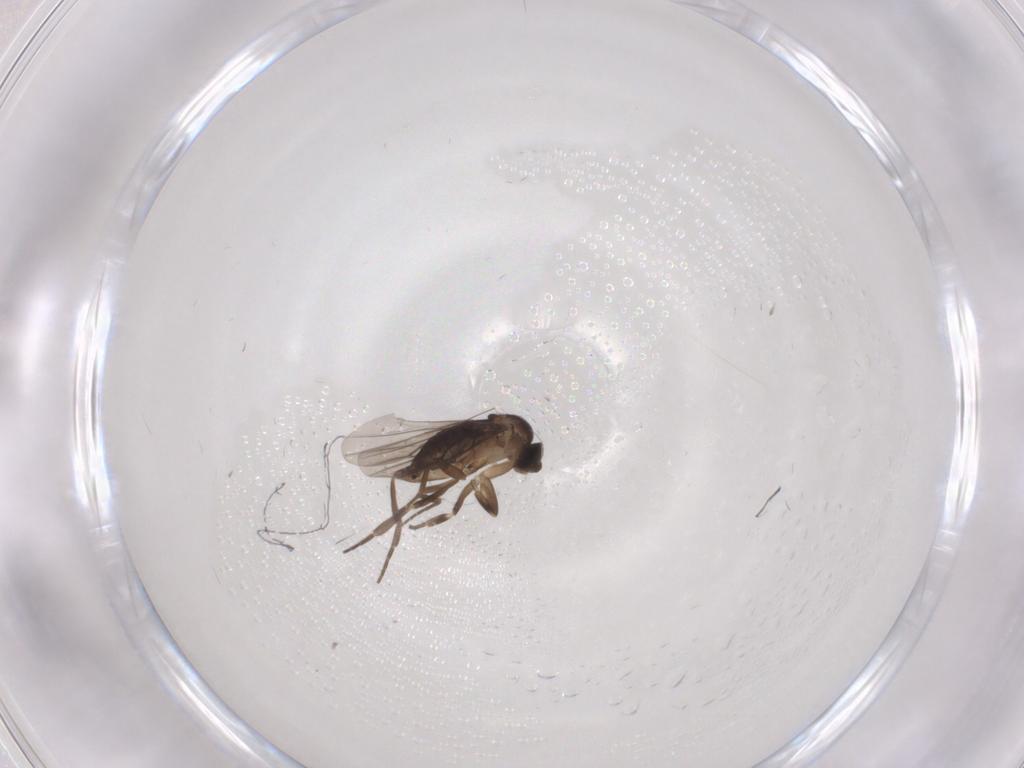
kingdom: Animalia
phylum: Arthropoda
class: Insecta
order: Diptera
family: Phoridae
